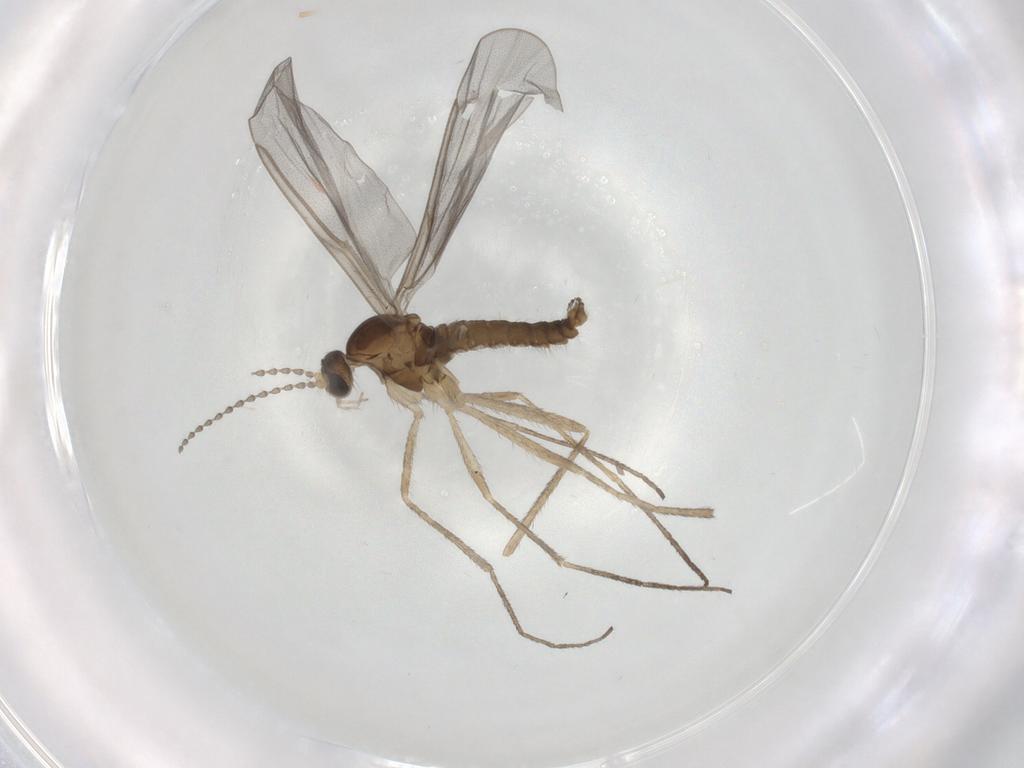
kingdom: Animalia
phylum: Arthropoda
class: Insecta
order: Diptera
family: Cecidomyiidae
